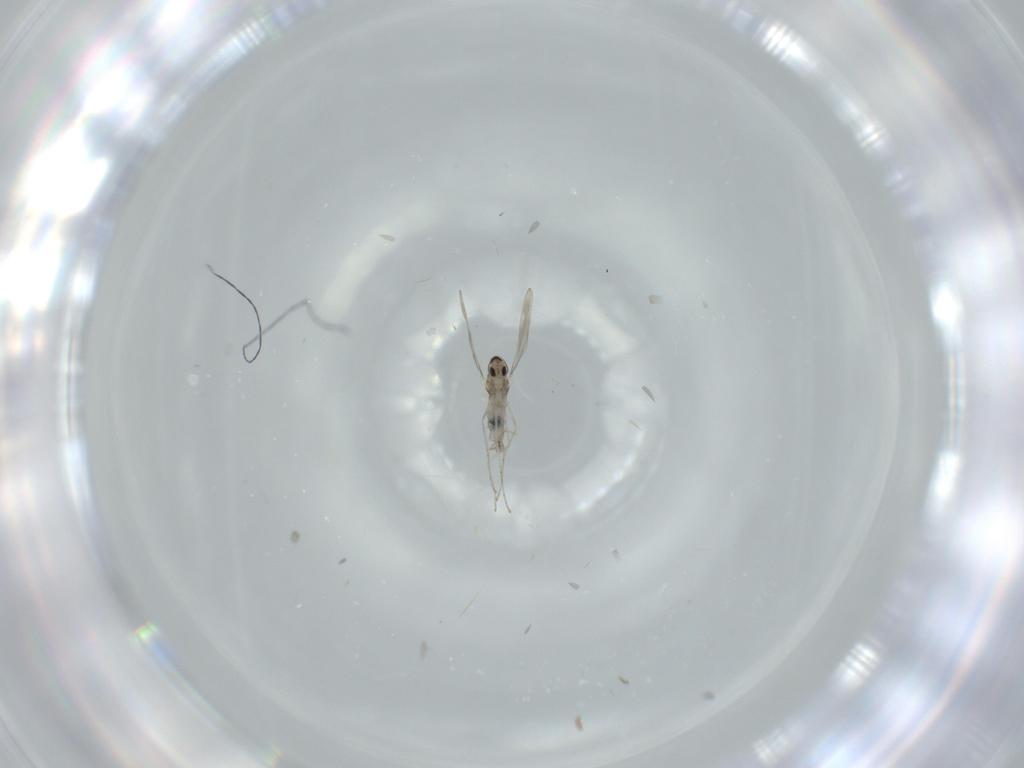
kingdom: Animalia
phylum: Arthropoda
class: Insecta
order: Diptera
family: Cecidomyiidae
